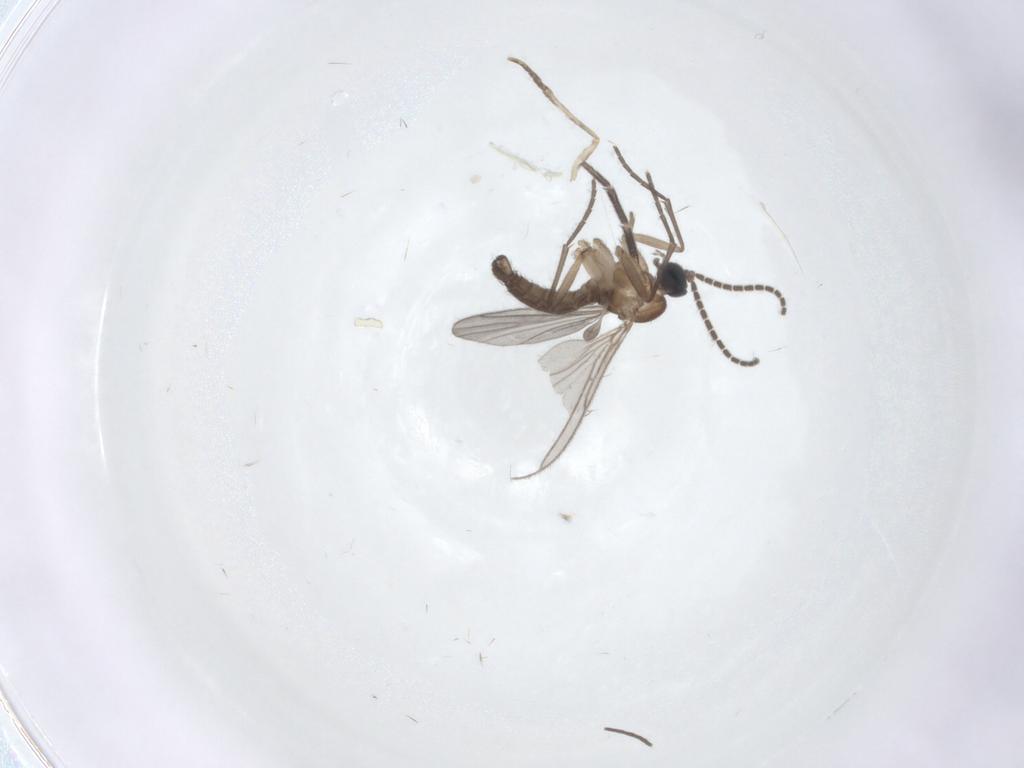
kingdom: Animalia
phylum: Arthropoda
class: Insecta
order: Diptera
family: Sciaridae
